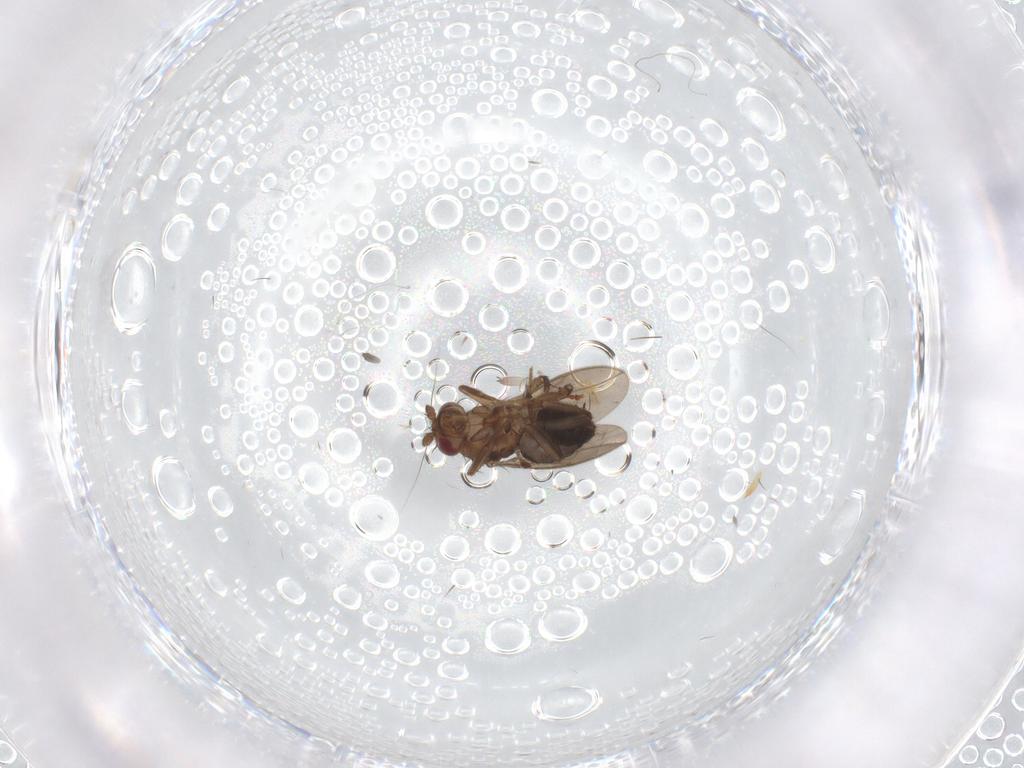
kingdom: Animalia
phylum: Arthropoda
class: Insecta
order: Diptera
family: Sphaeroceridae
